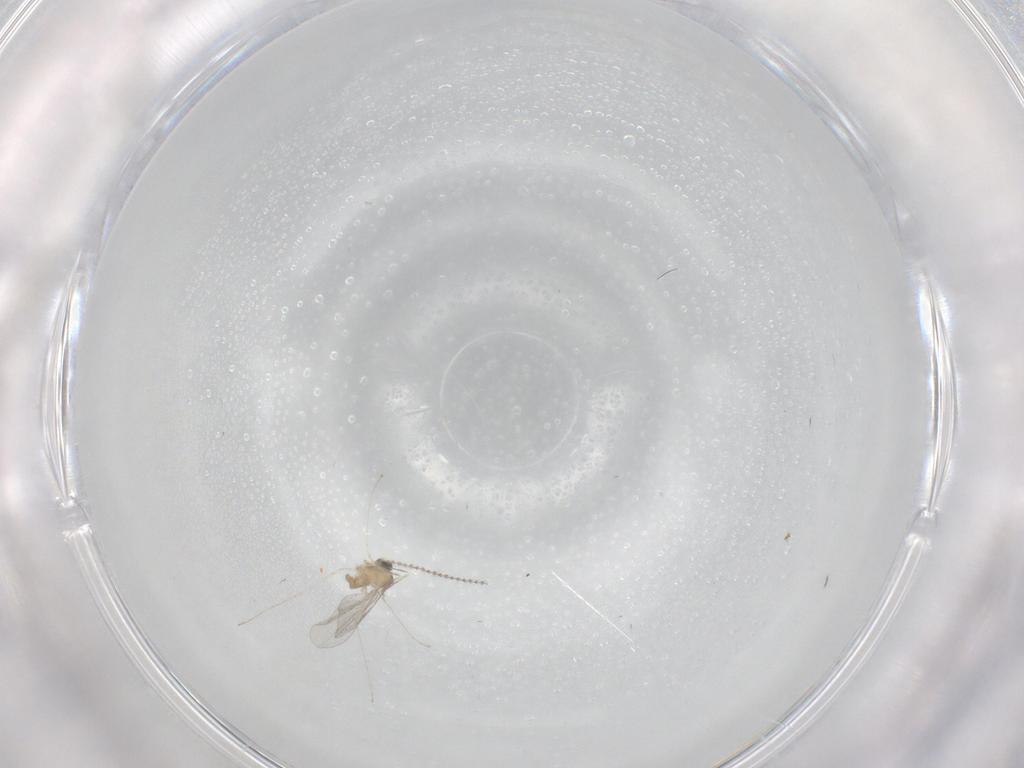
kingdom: Animalia
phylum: Arthropoda
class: Insecta
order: Diptera
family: Cecidomyiidae
